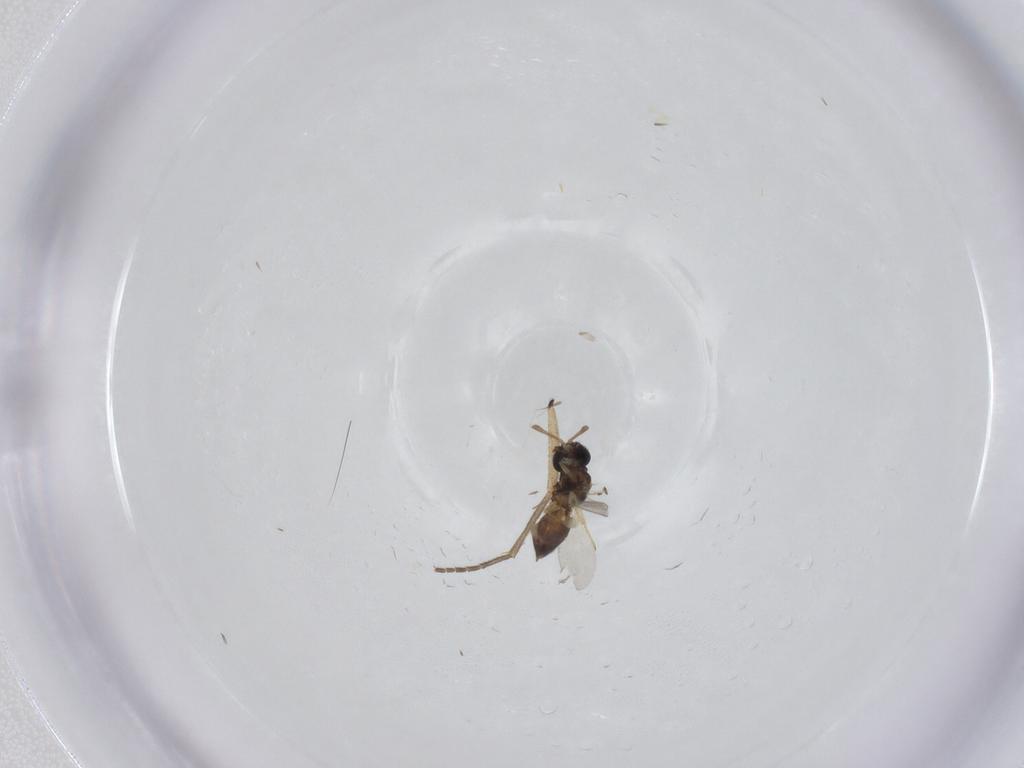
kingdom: Animalia
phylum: Arthropoda
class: Insecta
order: Hymenoptera
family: Eulophidae
